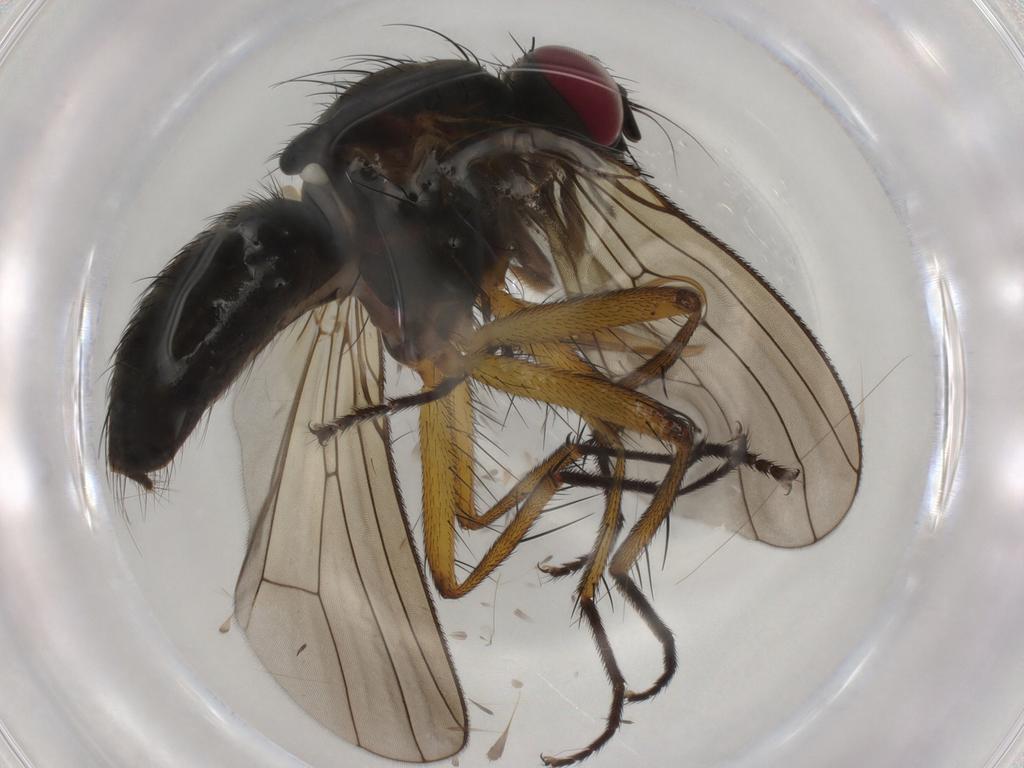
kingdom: Animalia
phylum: Arthropoda
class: Insecta
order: Diptera
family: Muscidae
